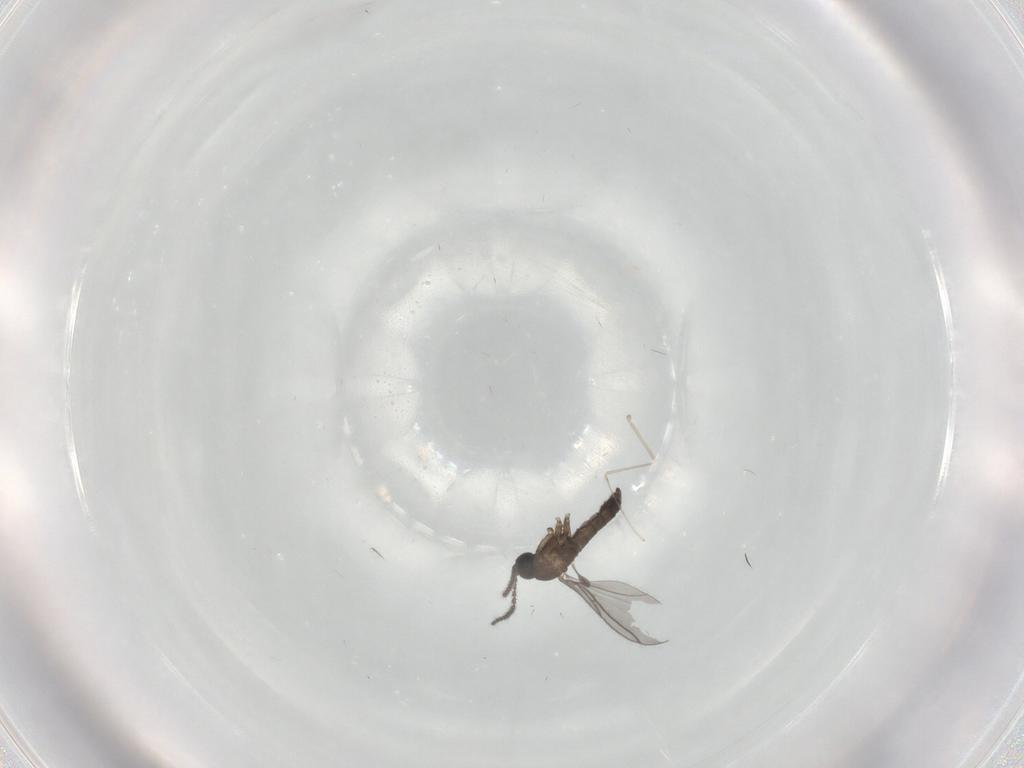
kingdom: Animalia
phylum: Arthropoda
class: Insecta
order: Diptera
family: Cecidomyiidae
